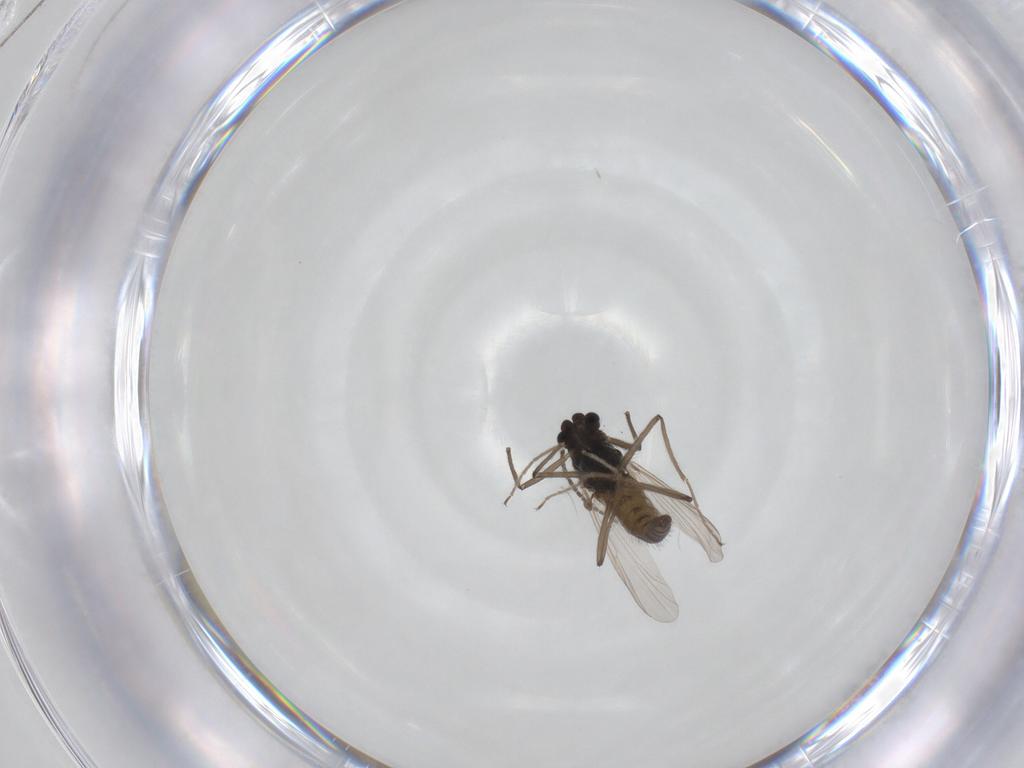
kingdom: Animalia
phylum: Arthropoda
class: Insecta
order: Diptera
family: Chironomidae
